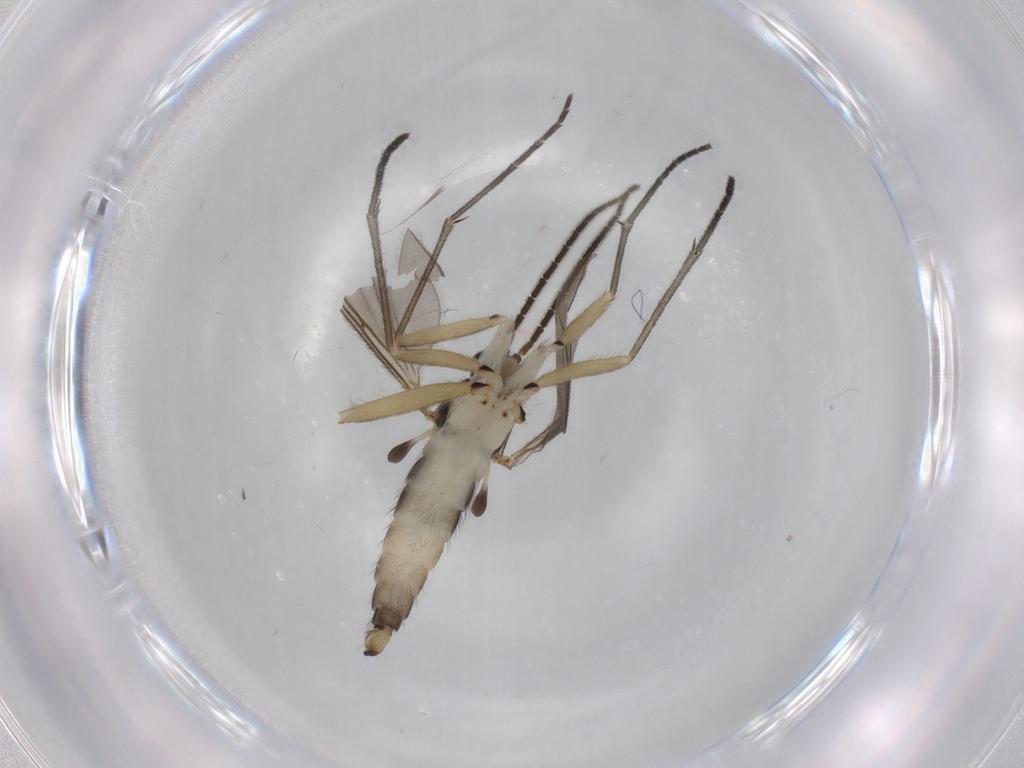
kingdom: Animalia
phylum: Arthropoda
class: Insecta
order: Diptera
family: Sciaridae
